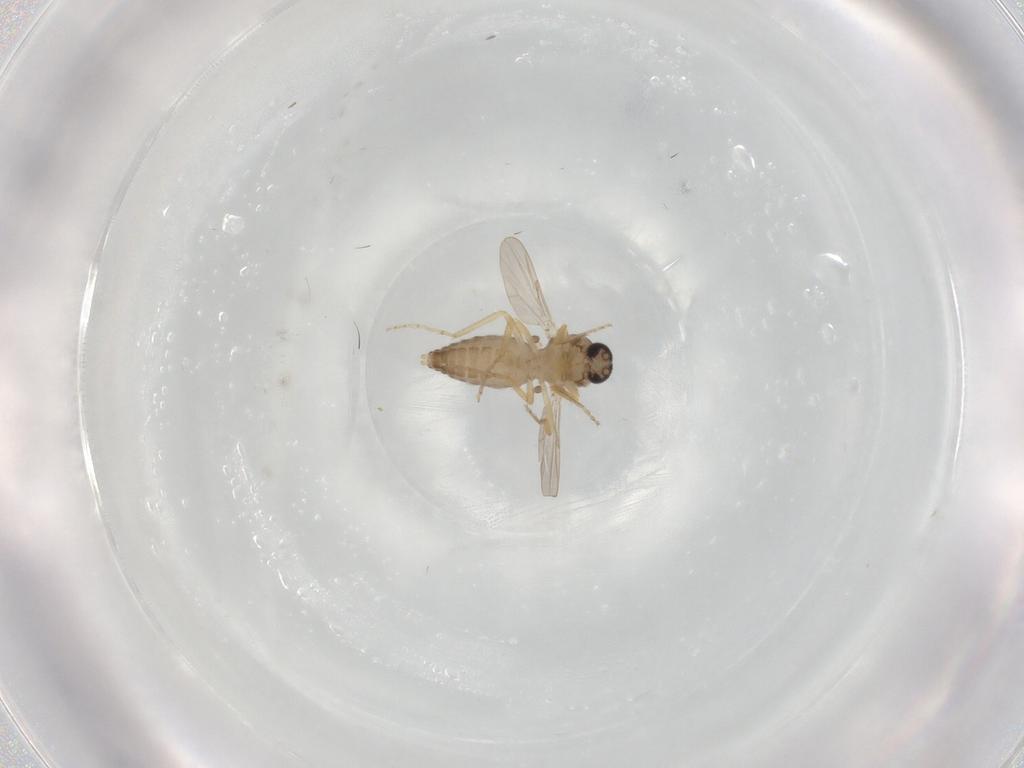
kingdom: Animalia
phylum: Arthropoda
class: Insecta
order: Diptera
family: Ceratopogonidae
